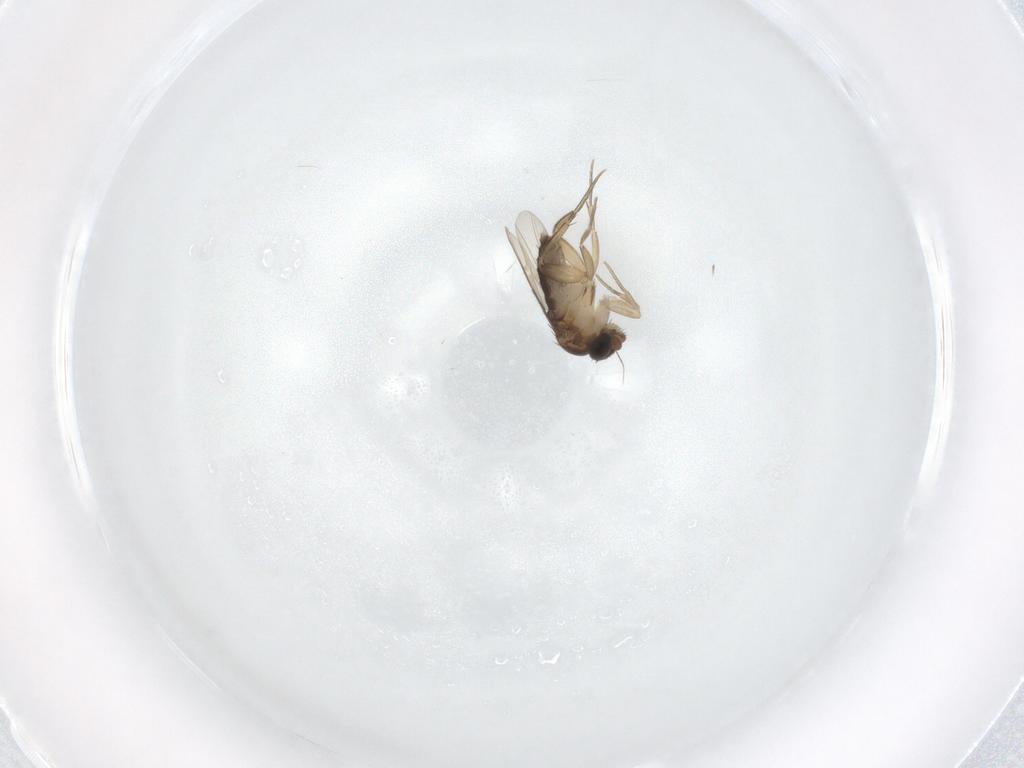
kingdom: Animalia
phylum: Arthropoda
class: Insecta
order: Diptera
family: Phoridae
